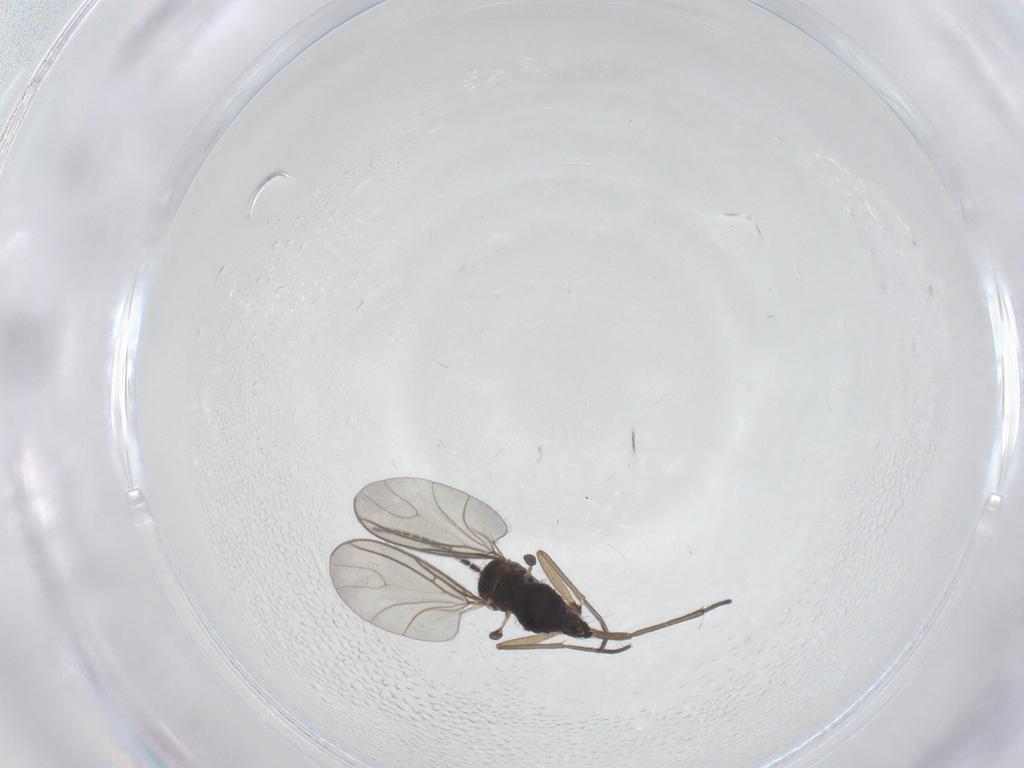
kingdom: Animalia
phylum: Arthropoda
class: Insecta
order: Diptera
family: Sciaridae
